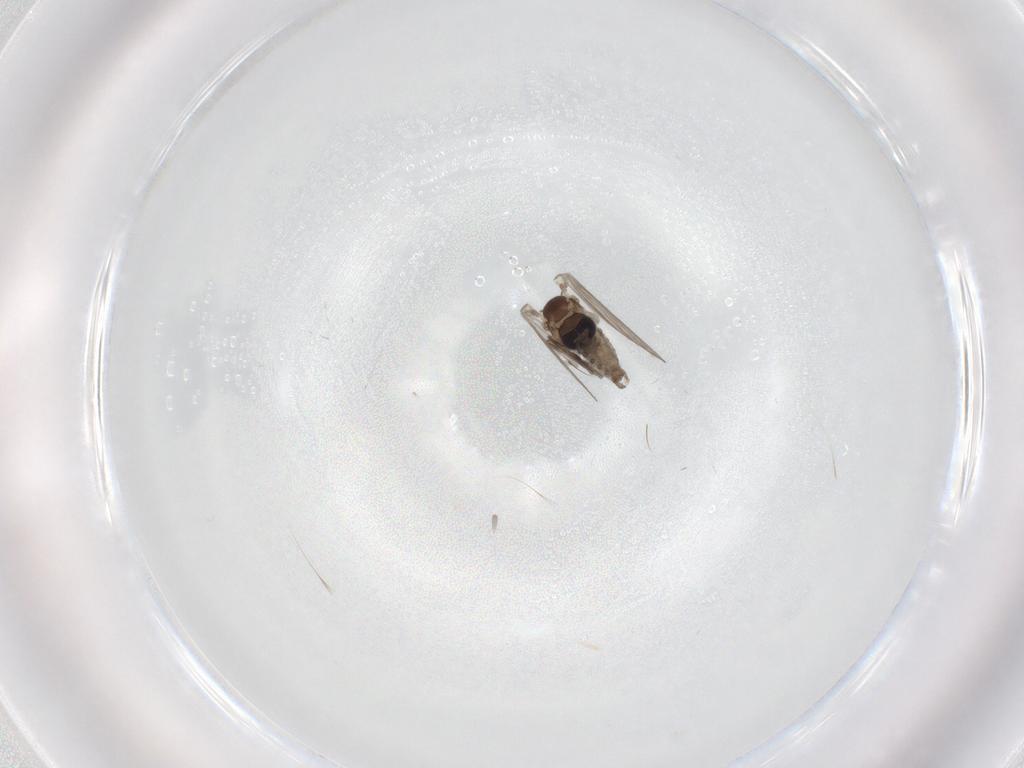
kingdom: Animalia
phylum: Arthropoda
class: Insecta
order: Diptera
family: Psychodidae
